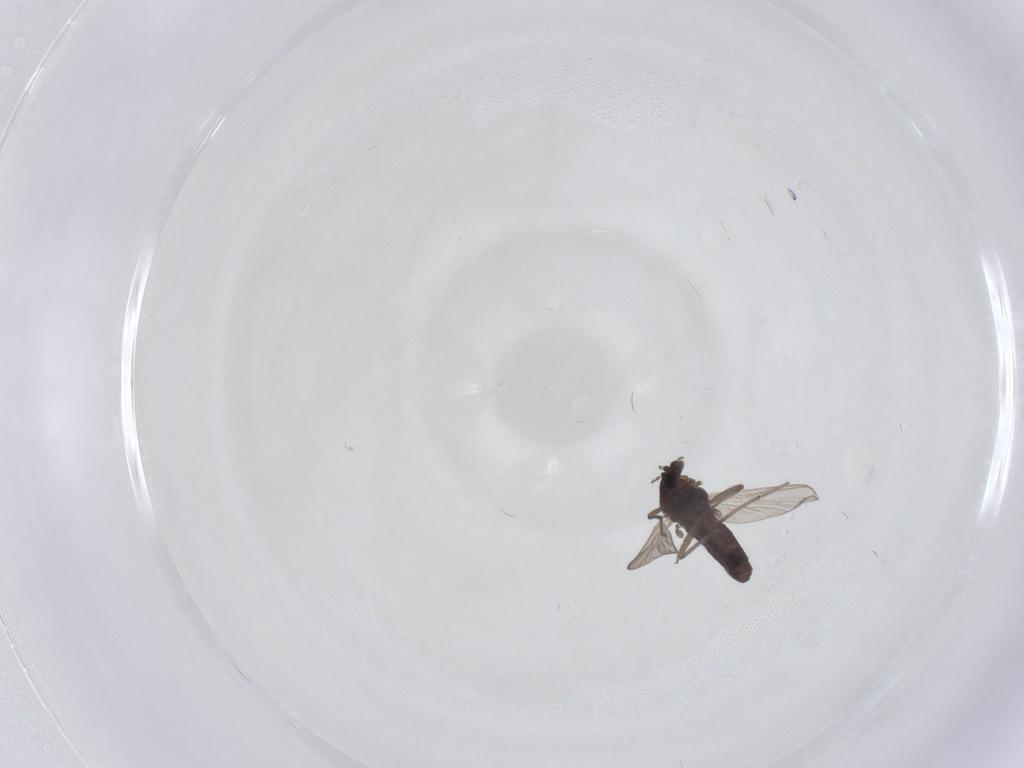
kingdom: Animalia
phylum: Arthropoda
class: Insecta
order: Diptera
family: Chironomidae
